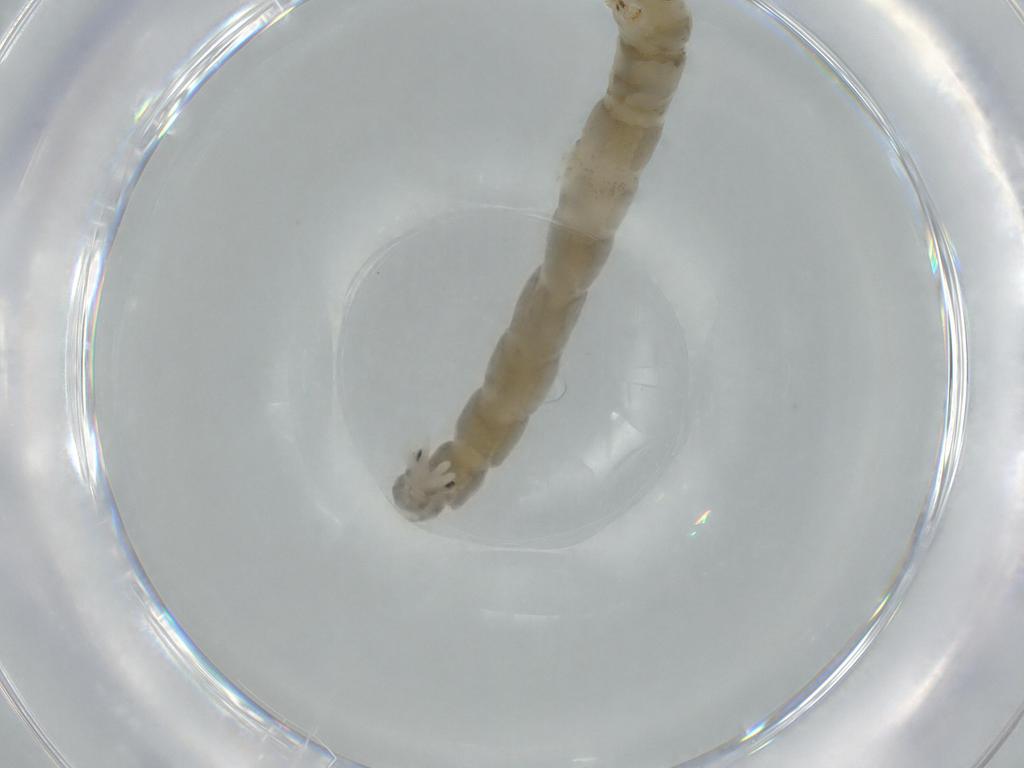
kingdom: Animalia
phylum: Arthropoda
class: Insecta
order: Diptera
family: Chironomidae
